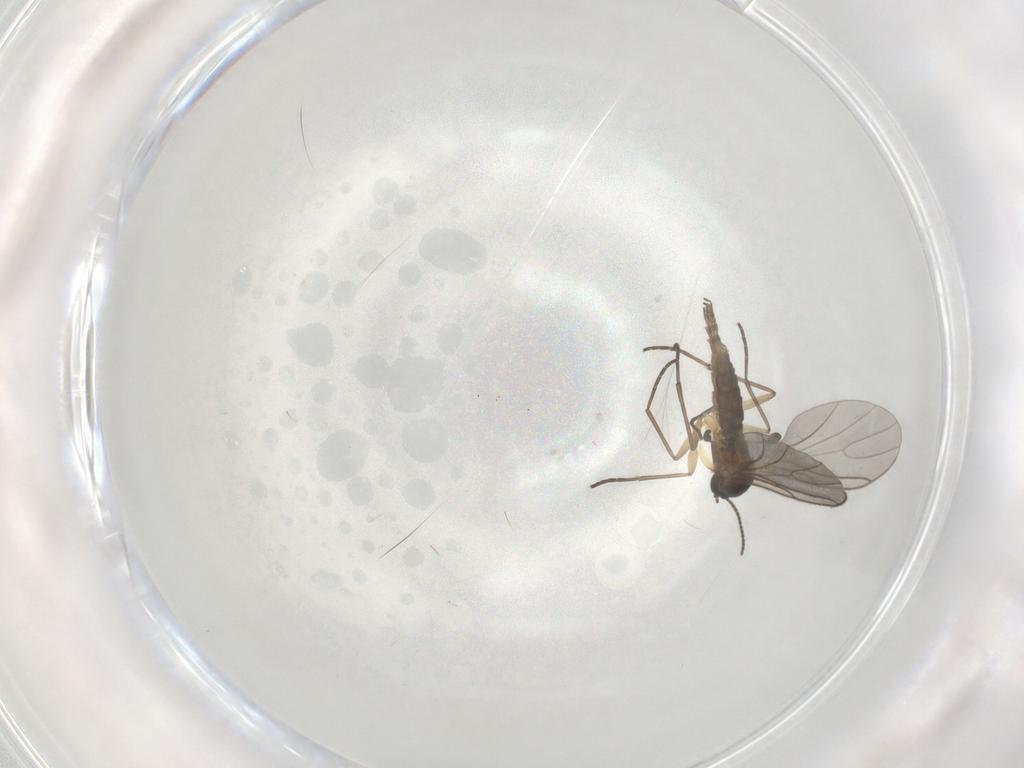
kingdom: Animalia
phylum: Arthropoda
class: Insecta
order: Diptera
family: Sciaridae
